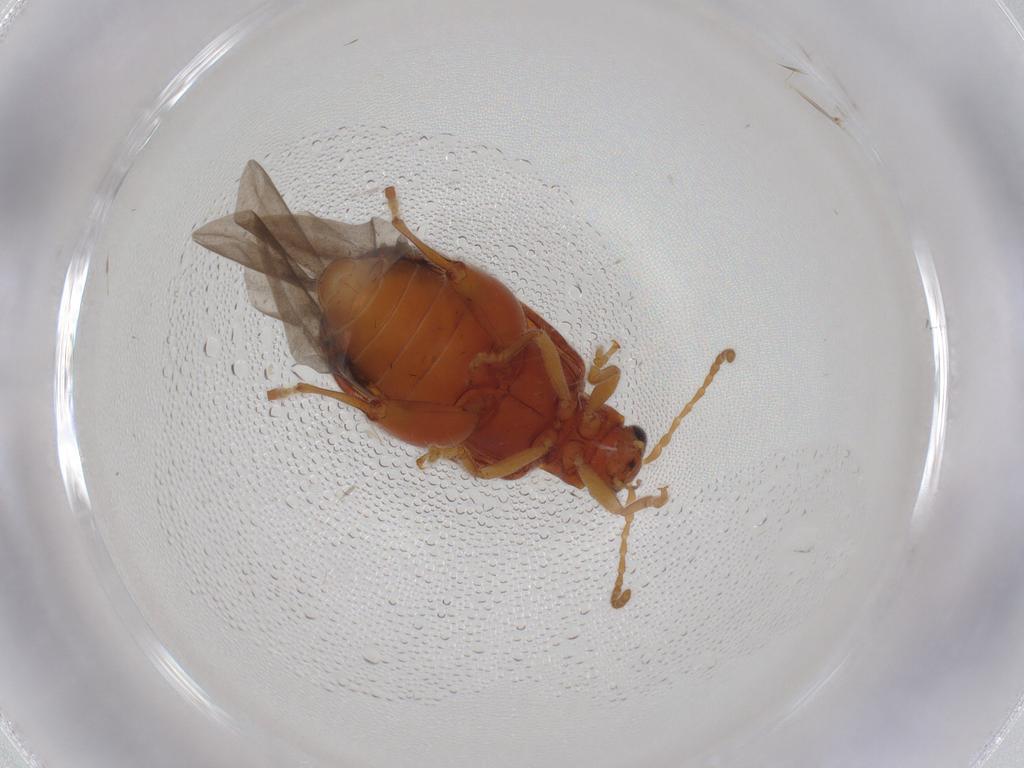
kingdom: Animalia
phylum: Arthropoda
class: Insecta
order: Coleoptera
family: Chrysomelidae
